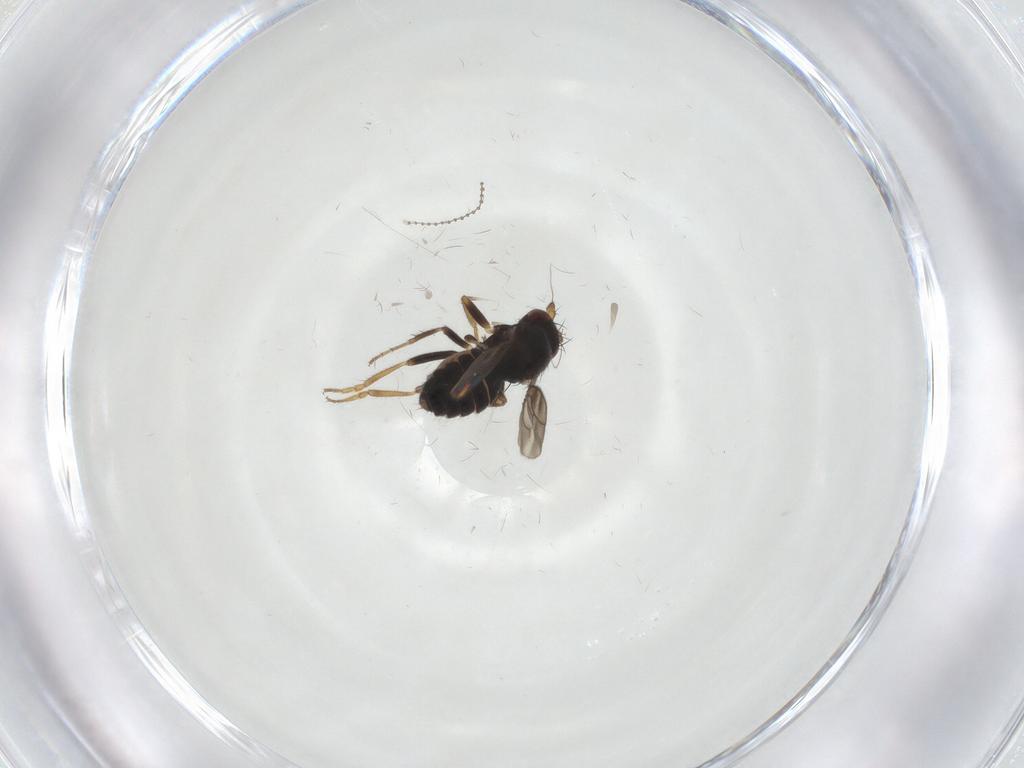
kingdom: Animalia
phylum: Arthropoda
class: Insecta
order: Diptera
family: Sphaeroceridae
